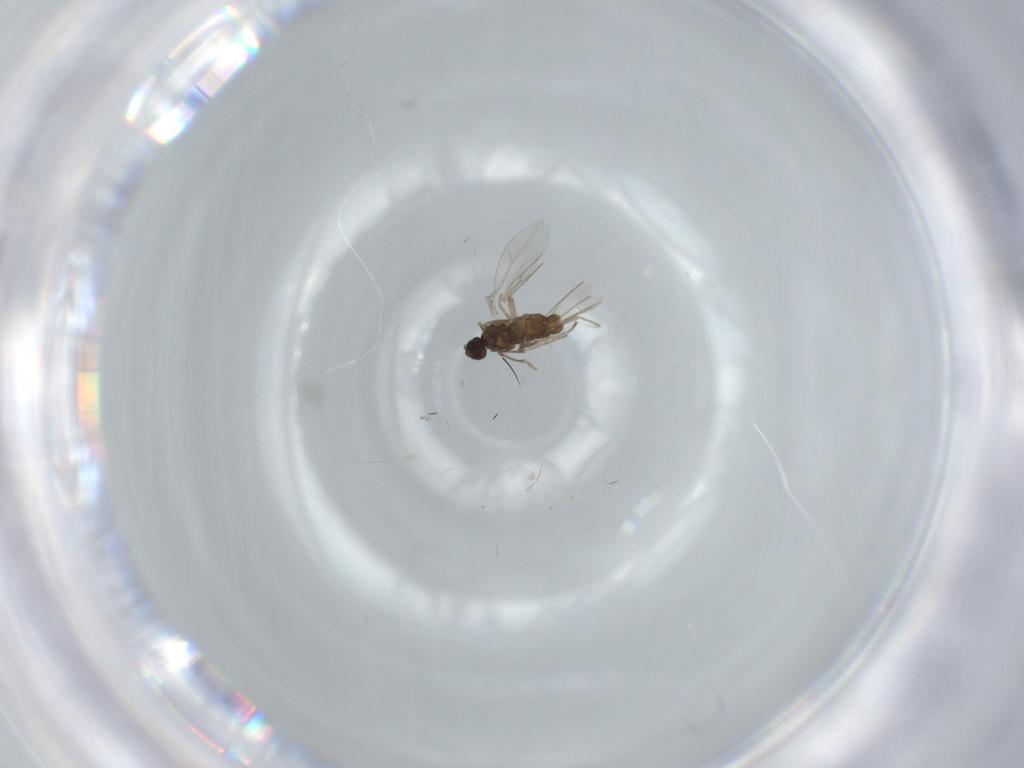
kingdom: Animalia
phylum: Arthropoda
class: Insecta
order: Diptera
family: Cecidomyiidae
